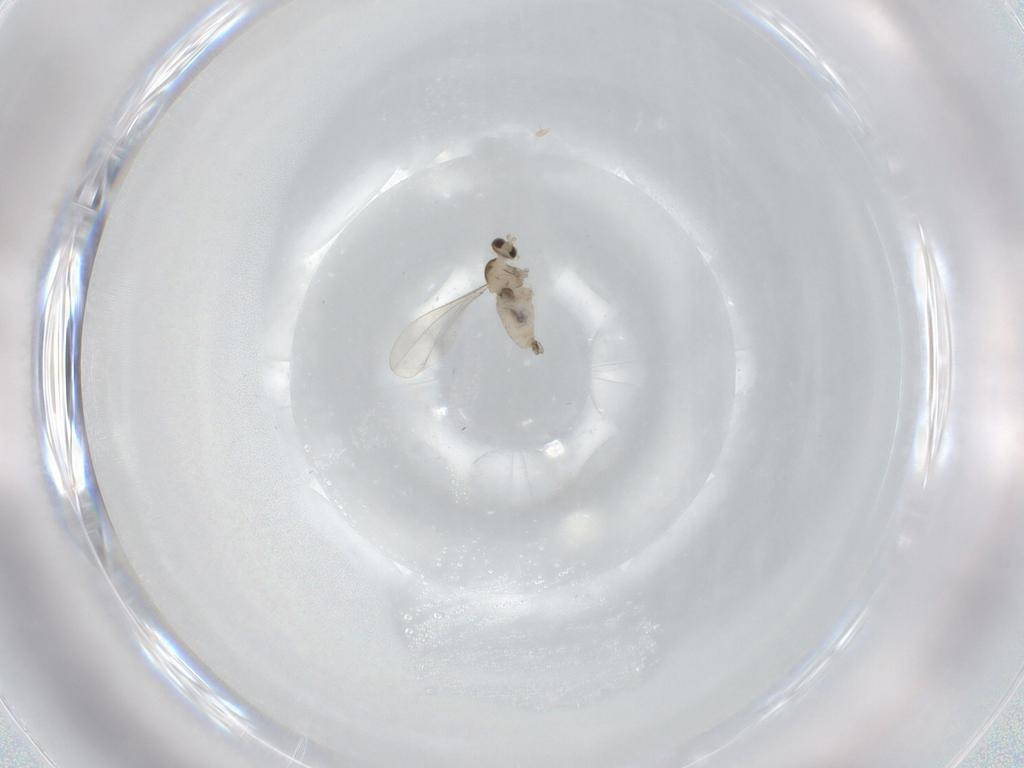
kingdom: Animalia
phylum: Arthropoda
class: Insecta
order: Diptera
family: Cecidomyiidae
